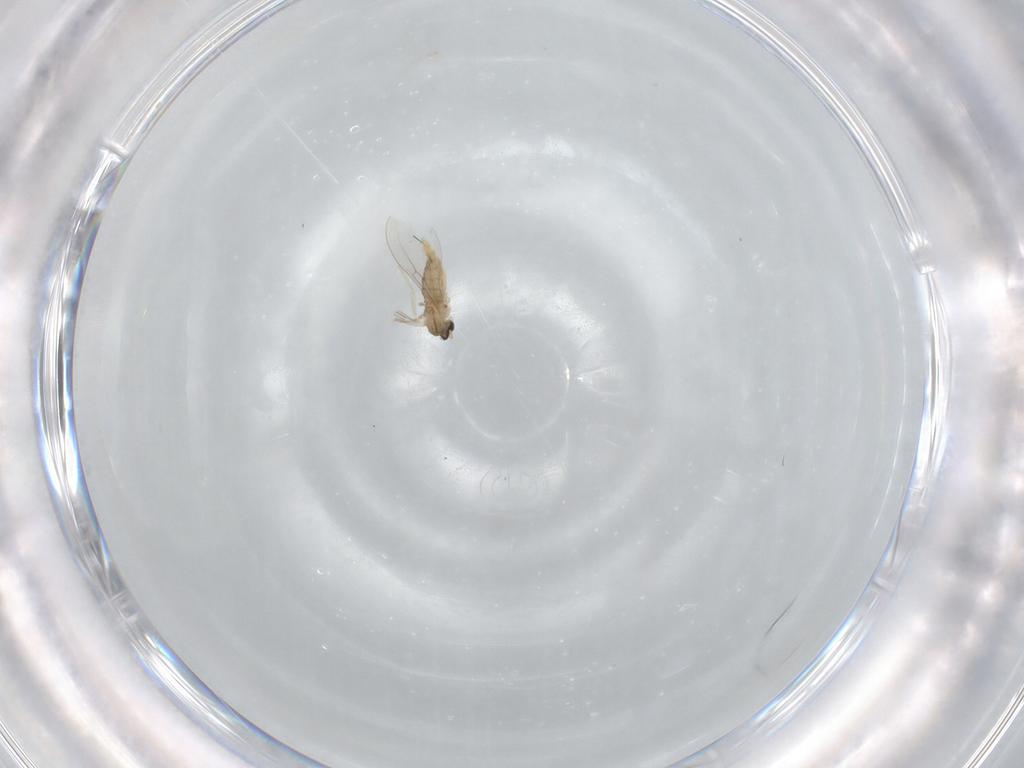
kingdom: Animalia
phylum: Arthropoda
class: Insecta
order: Diptera
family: Cecidomyiidae
